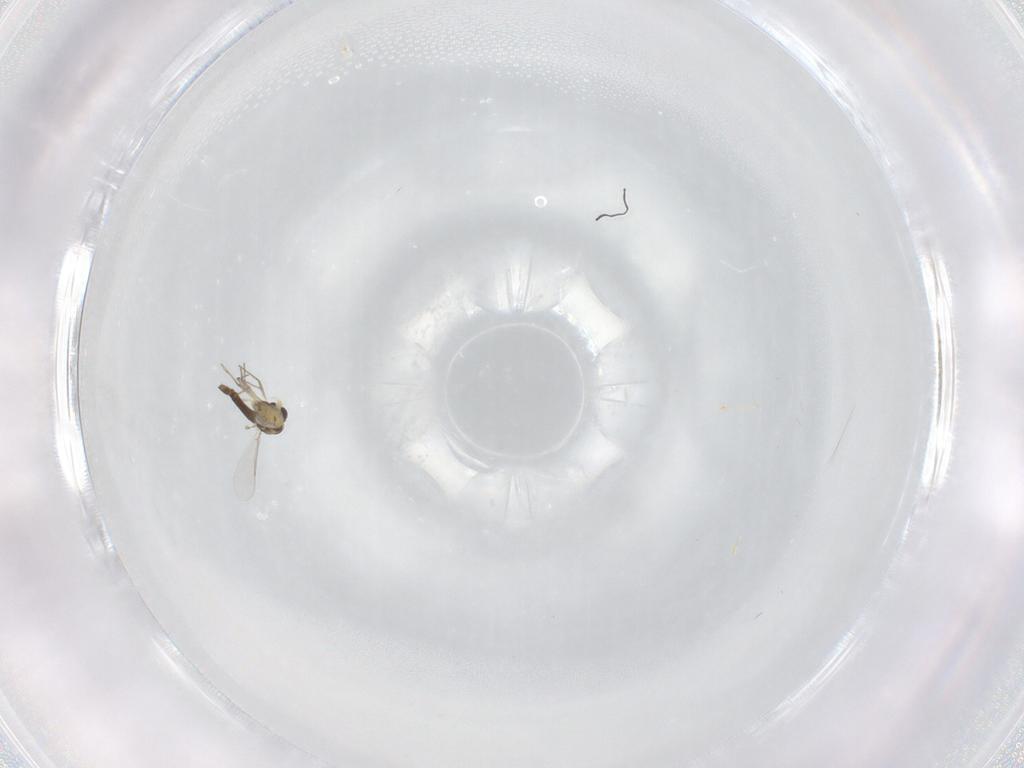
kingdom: Animalia
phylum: Arthropoda
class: Insecta
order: Diptera
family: Chironomidae
